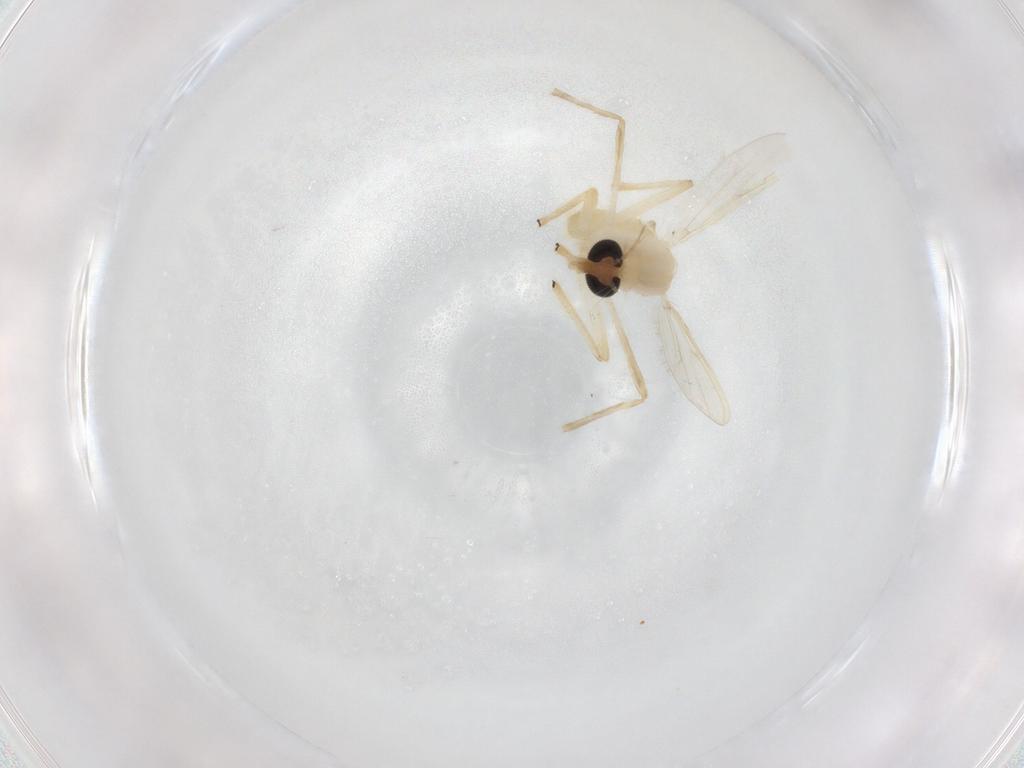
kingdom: Animalia
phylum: Arthropoda
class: Insecta
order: Diptera
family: Chironomidae
